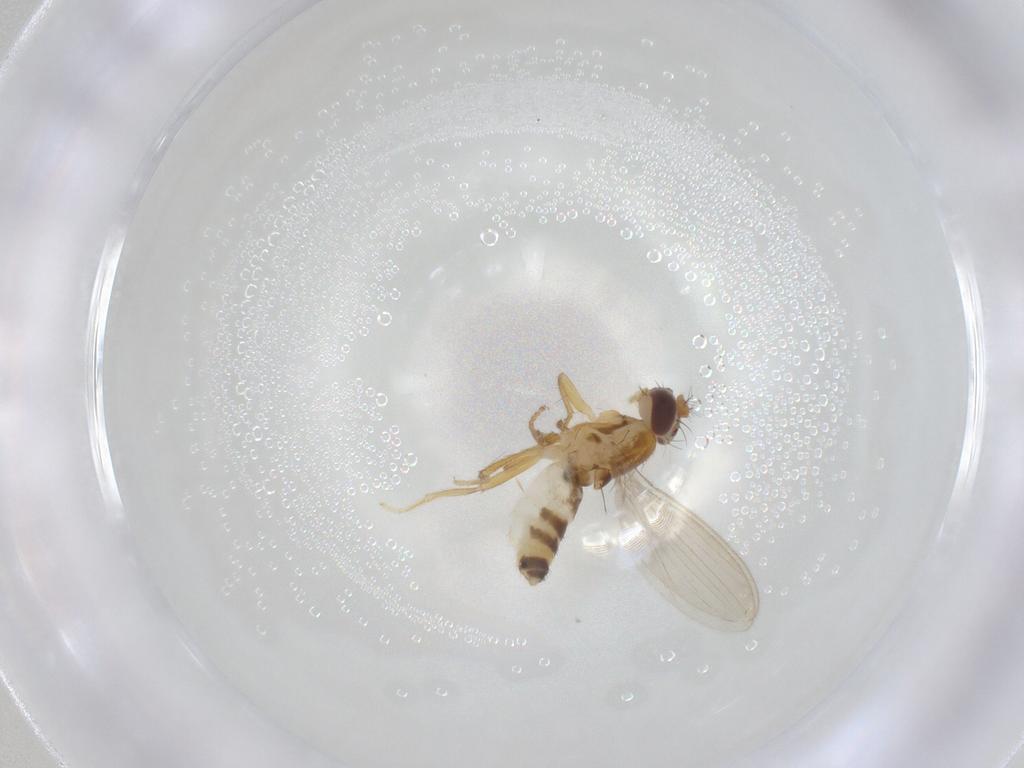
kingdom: Animalia
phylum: Arthropoda
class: Insecta
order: Diptera
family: Periscelididae
